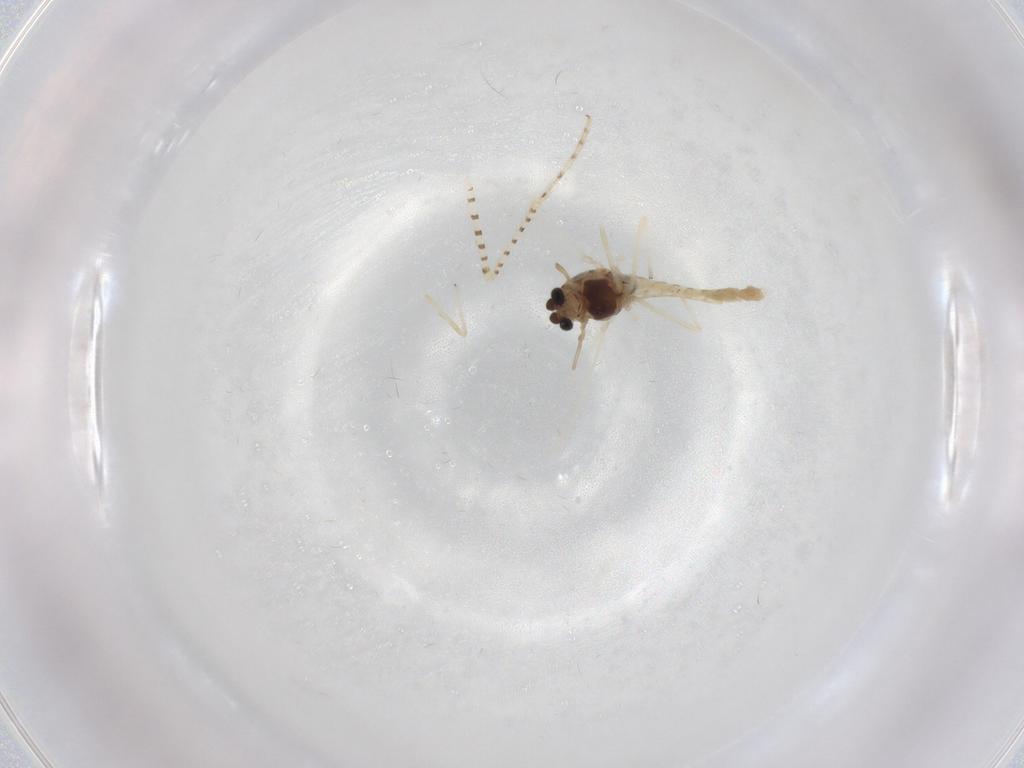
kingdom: Animalia
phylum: Arthropoda
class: Insecta
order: Diptera
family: Chironomidae
